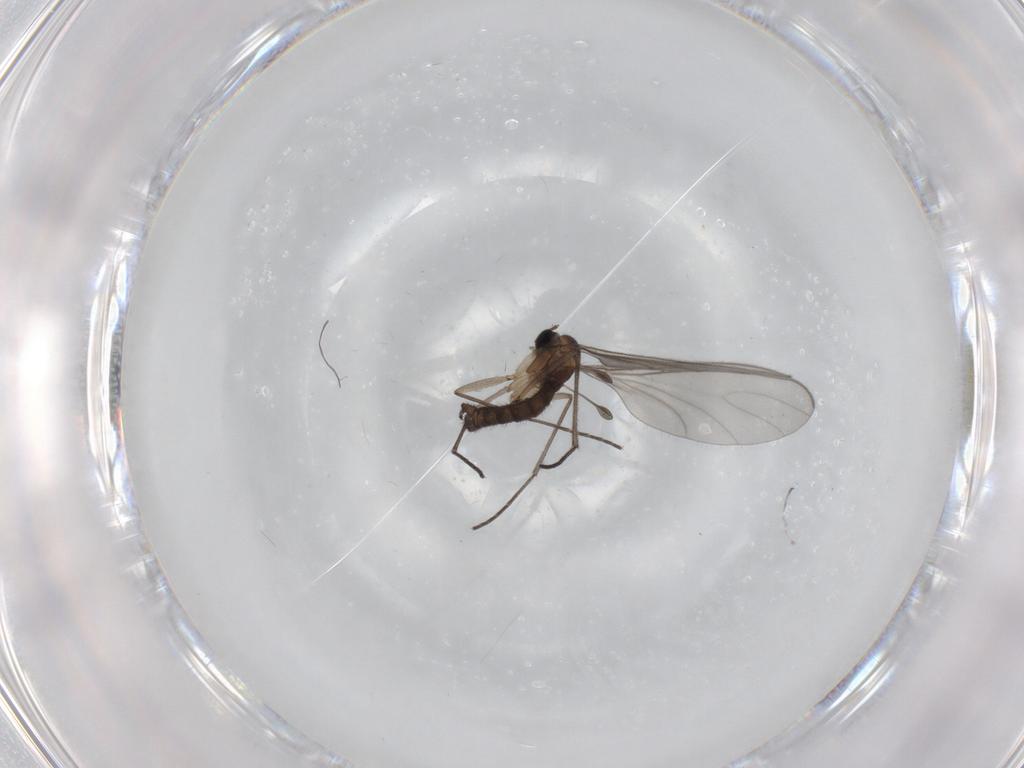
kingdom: Animalia
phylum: Arthropoda
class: Insecta
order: Diptera
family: Sciaridae
